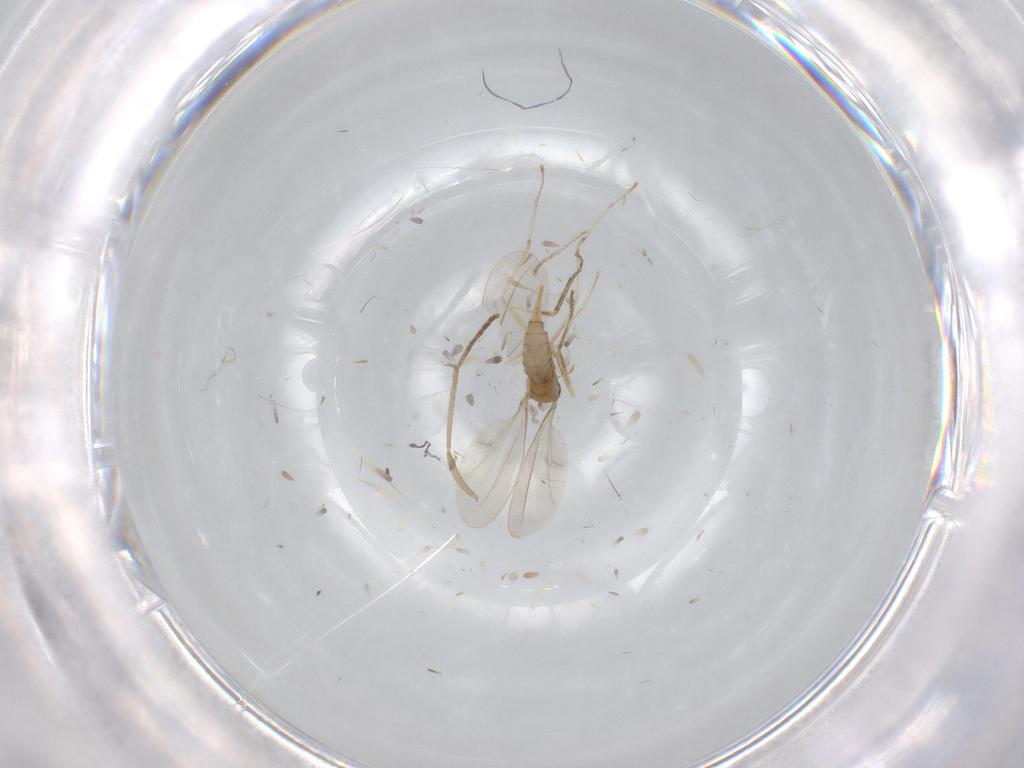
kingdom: Animalia
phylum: Arthropoda
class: Insecta
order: Diptera
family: Cecidomyiidae
